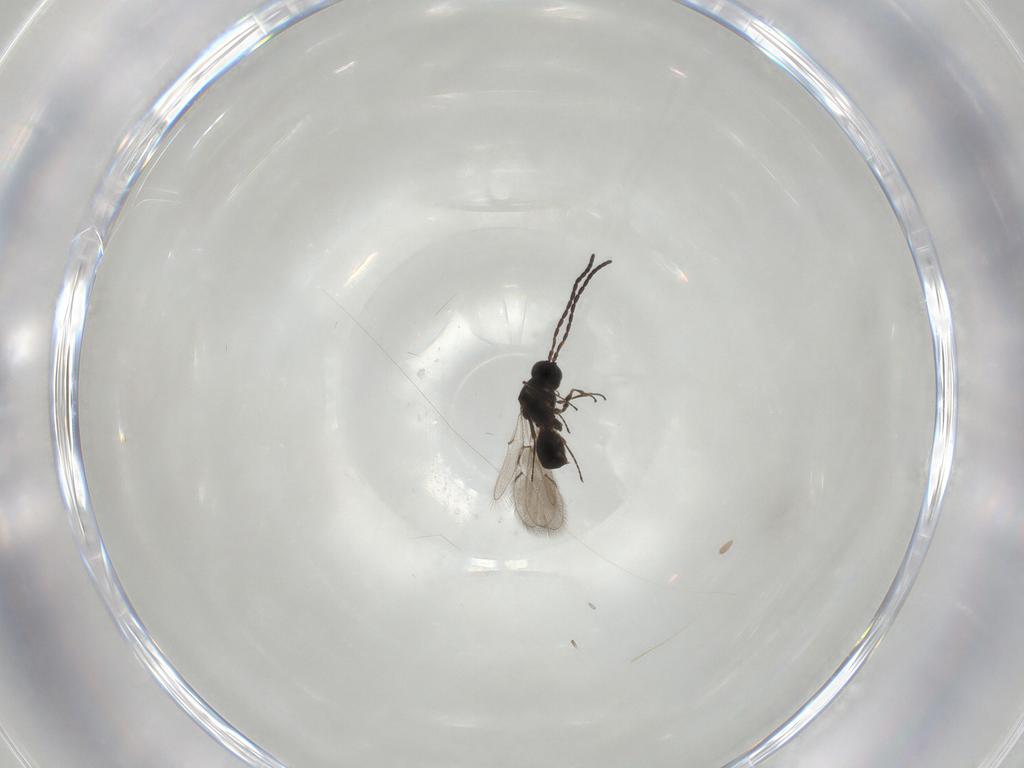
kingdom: Animalia
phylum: Arthropoda
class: Insecta
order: Hymenoptera
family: Figitidae
